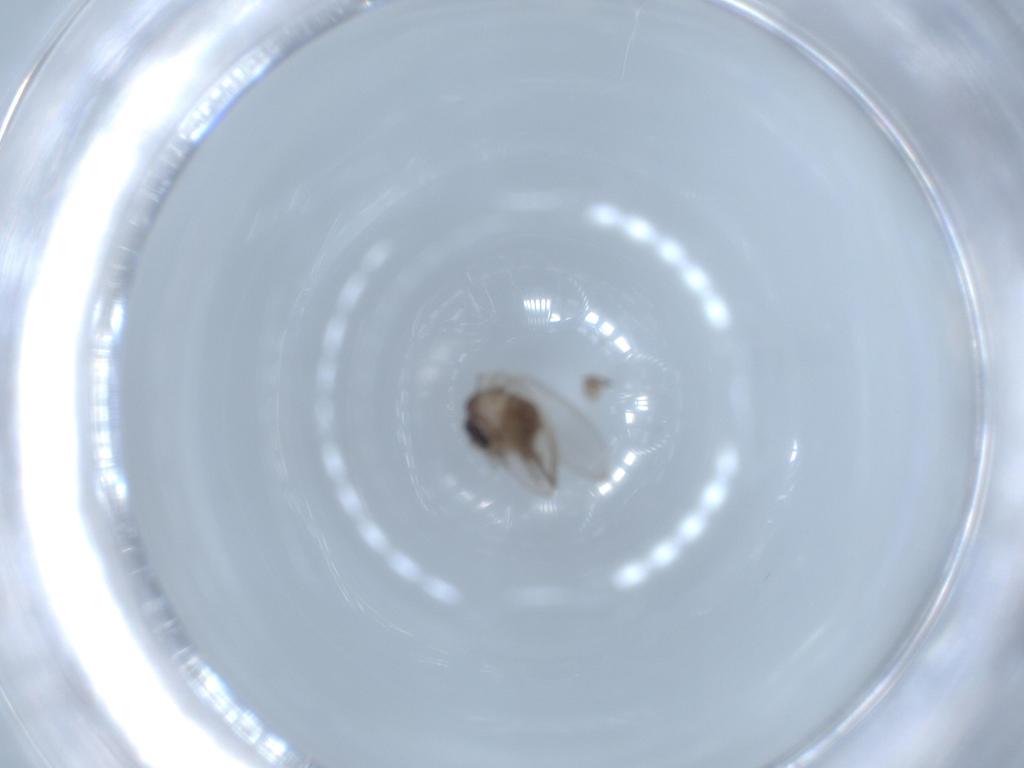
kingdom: Animalia
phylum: Arthropoda
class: Insecta
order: Diptera
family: Psychodidae
